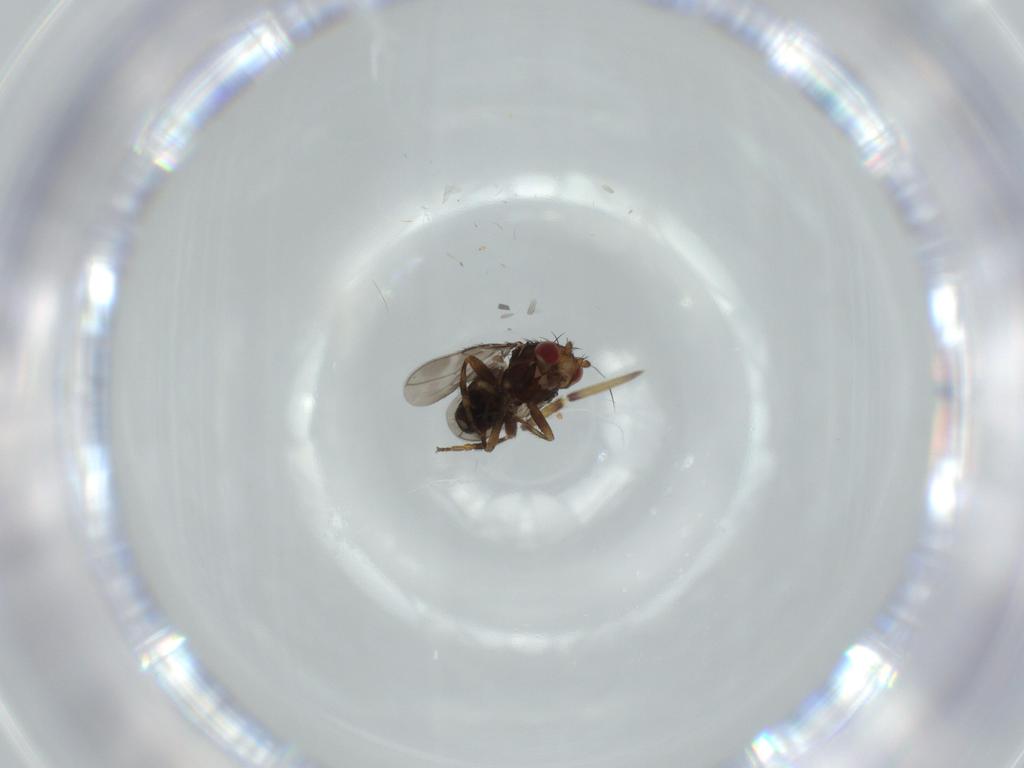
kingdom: Animalia
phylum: Arthropoda
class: Insecta
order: Diptera
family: Sphaeroceridae
